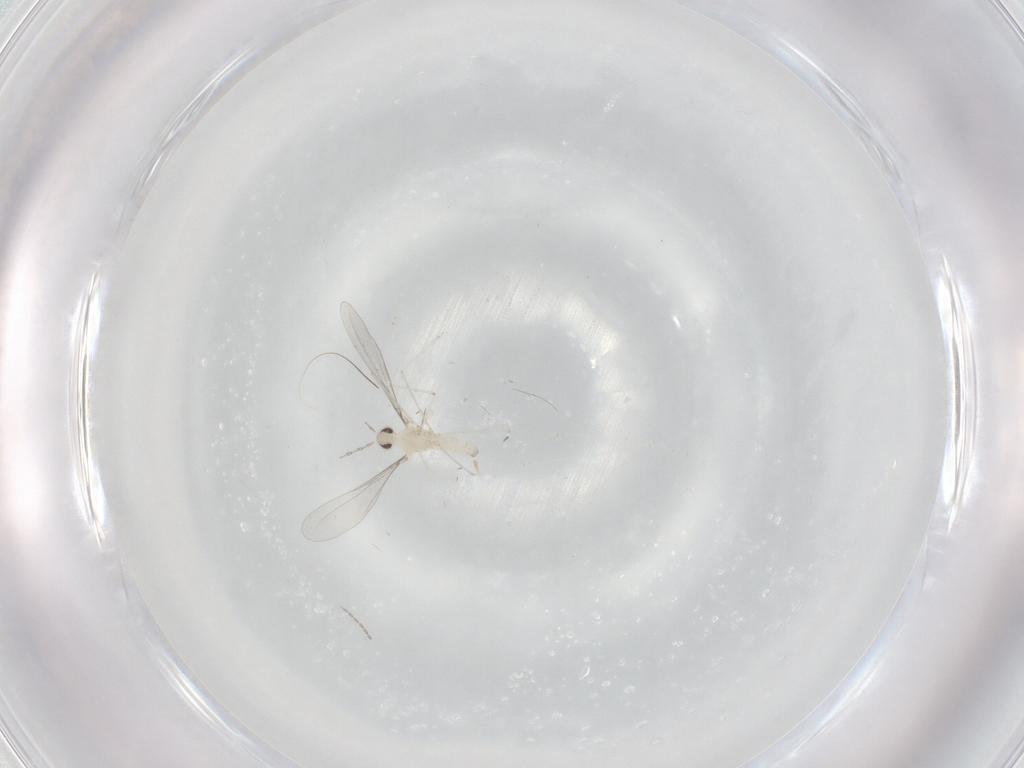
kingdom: Animalia
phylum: Arthropoda
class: Insecta
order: Diptera
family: Cecidomyiidae
